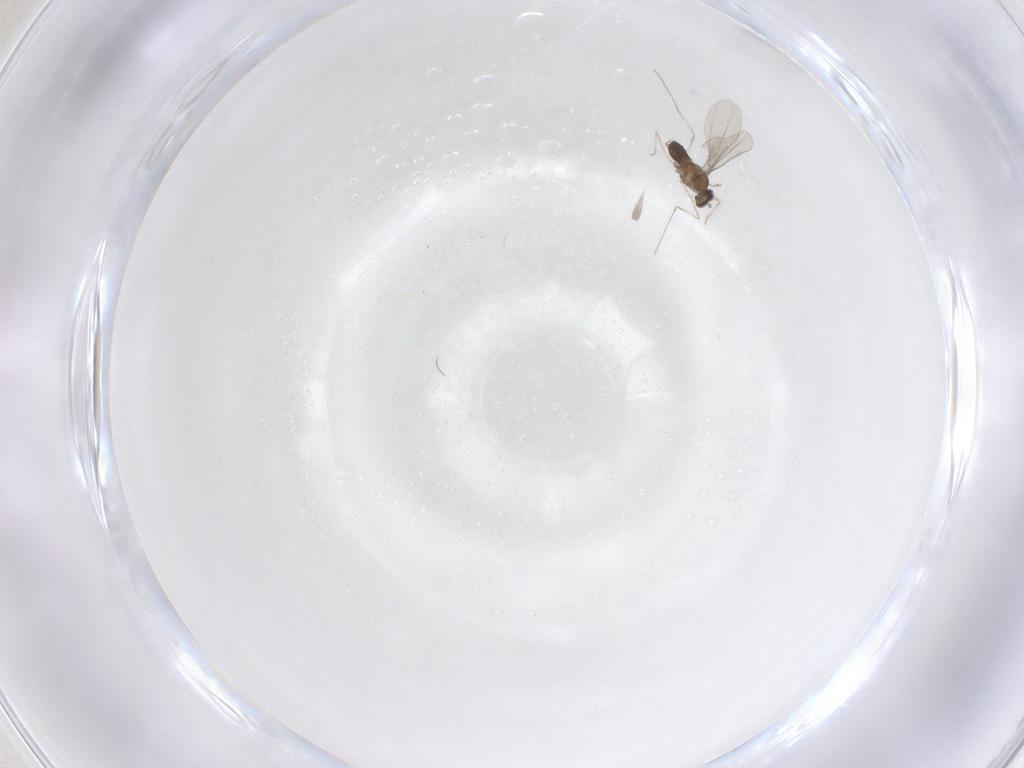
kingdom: Animalia
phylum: Arthropoda
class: Insecta
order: Diptera
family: Cecidomyiidae
